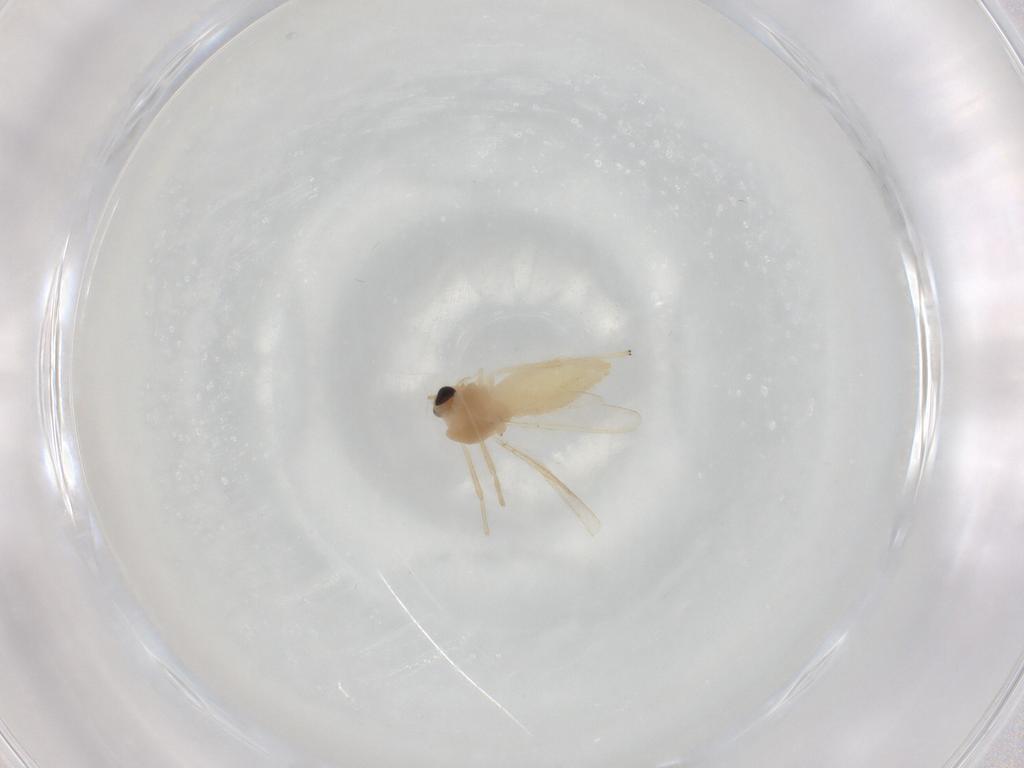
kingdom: Animalia
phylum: Arthropoda
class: Insecta
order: Diptera
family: Chironomidae
